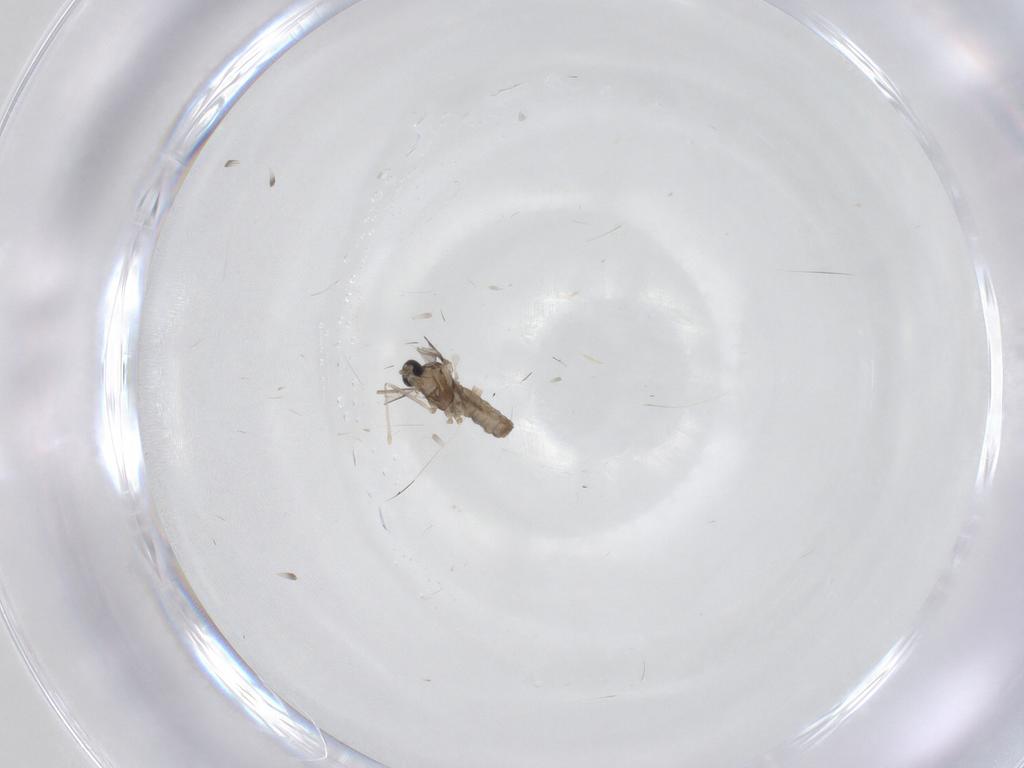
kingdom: Animalia
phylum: Arthropoda
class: Insecta
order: Diptera
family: Cecidomyiidae
